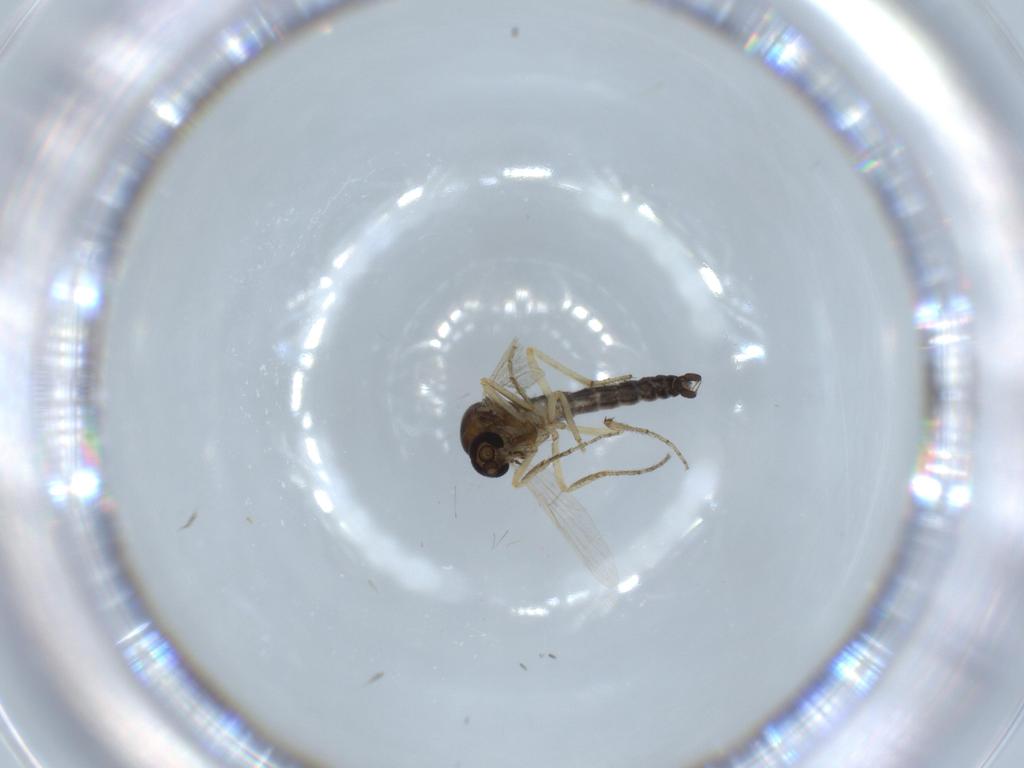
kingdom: Animalia
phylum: Arthropoda
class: Insecta
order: Diptera
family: Ceratopogonidae
